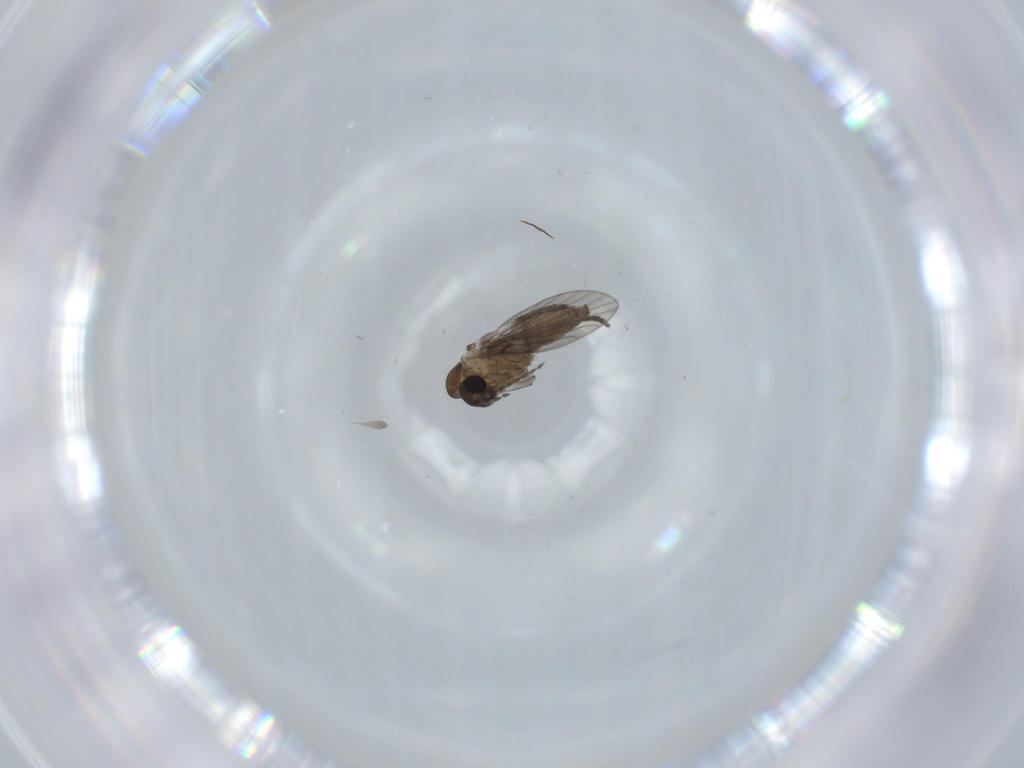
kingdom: Animalia
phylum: Arthropoda
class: Insecta
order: Diptera
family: Psychodidae
